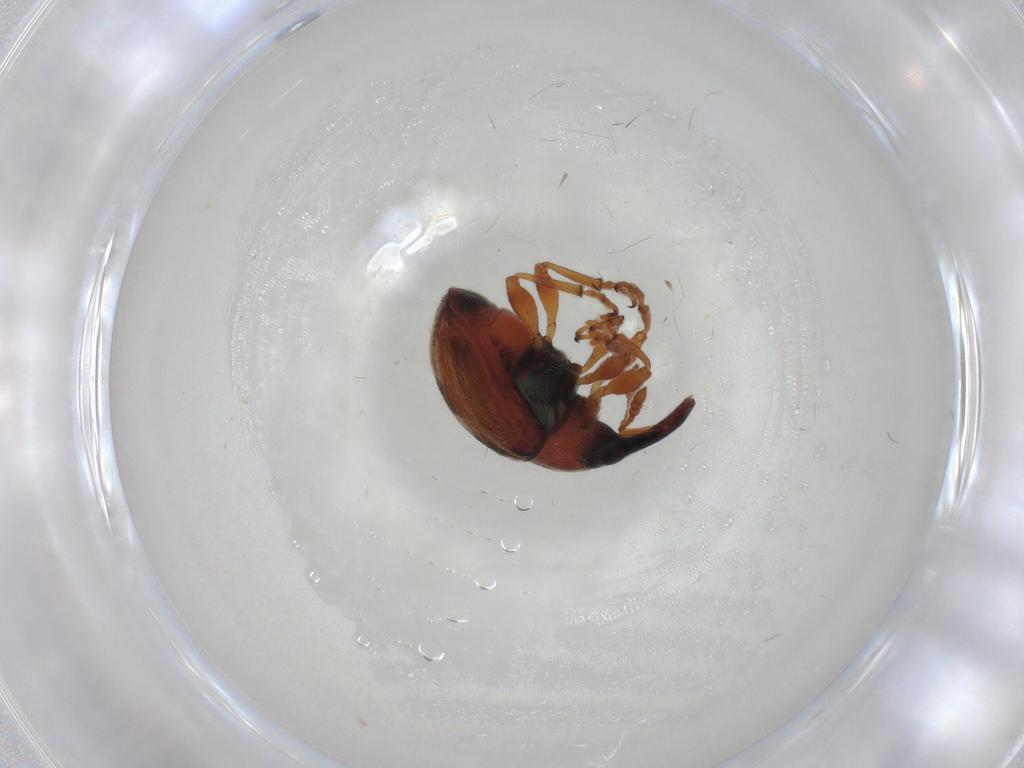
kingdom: Animalia
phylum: Arthropoda
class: Insecta
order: Coleoptera
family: Brentidae
